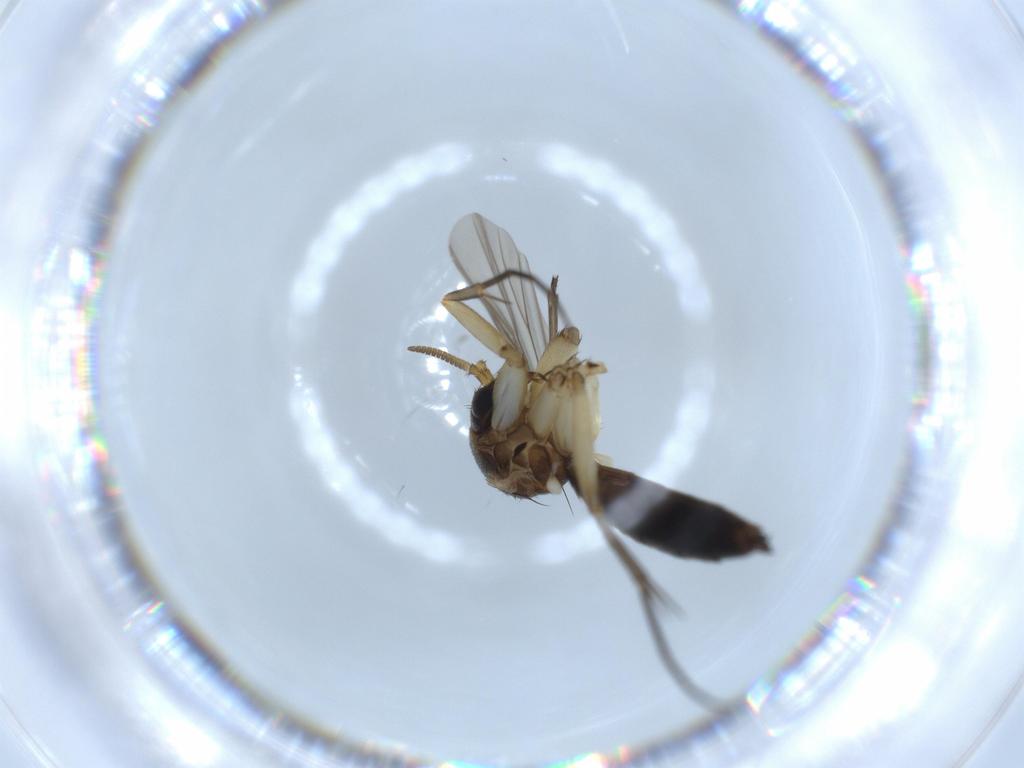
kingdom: Animalia
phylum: Arthropoda
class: Insecta
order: Diptera
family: Mycetophilidae
